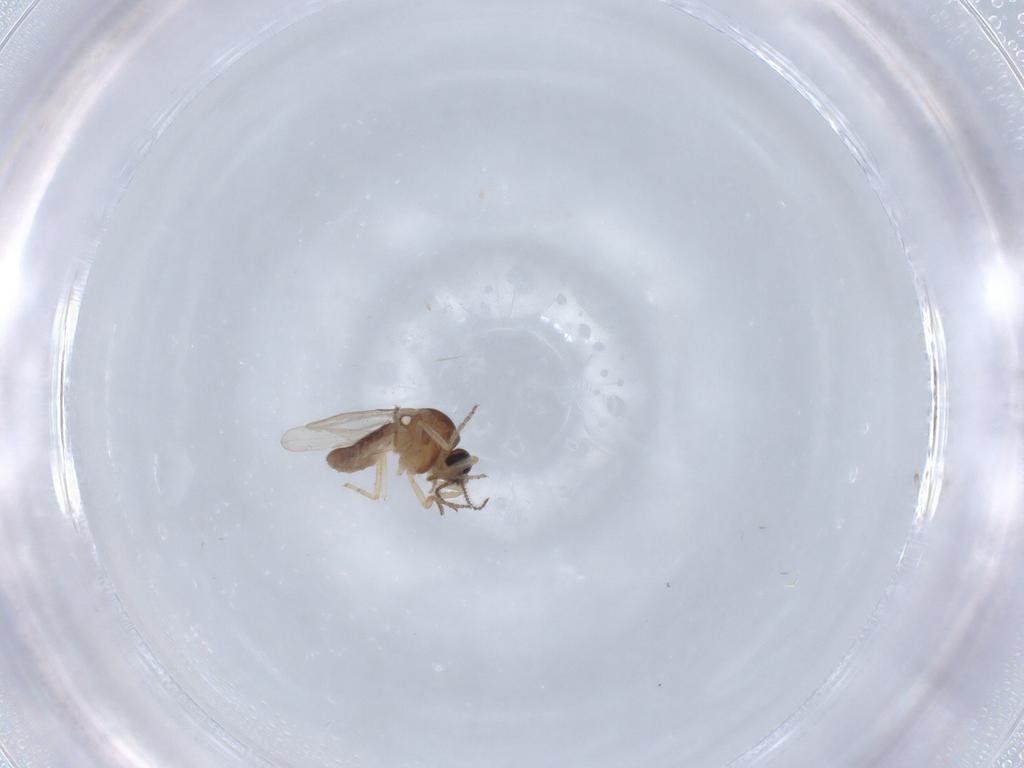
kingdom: Animalia
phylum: Arthropoda
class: Insecta
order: Diptera
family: Ceratopogonidae
